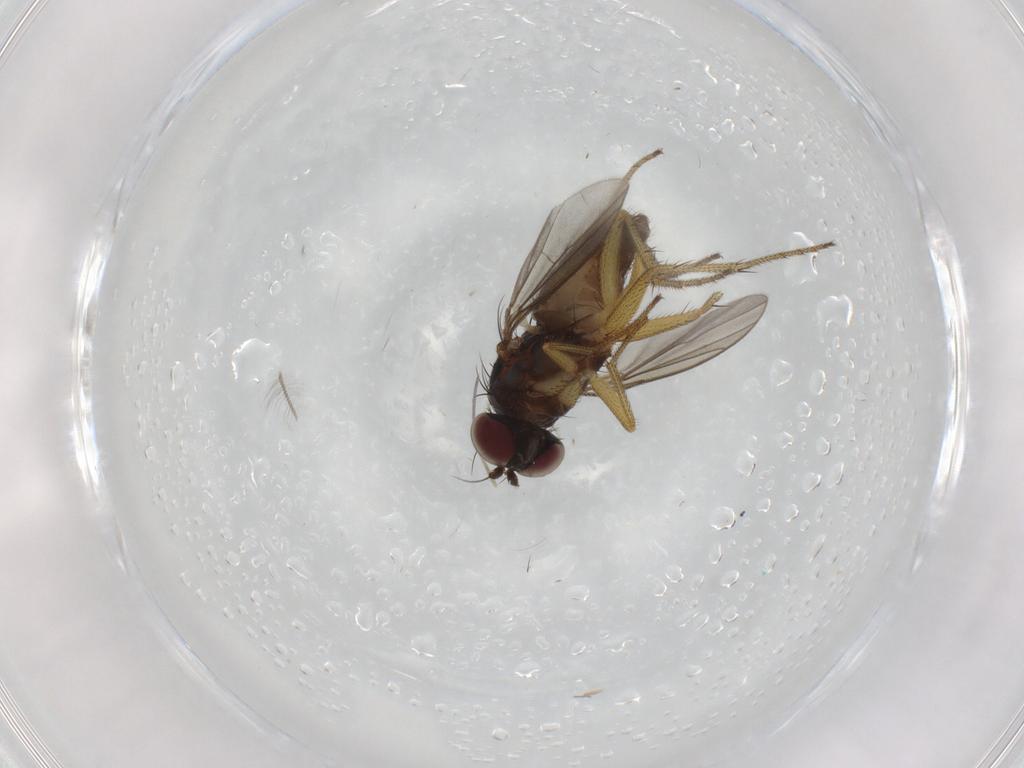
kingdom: Animalia
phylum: Arthropoda
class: Insecta
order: Diptera
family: Dolichopodidae
